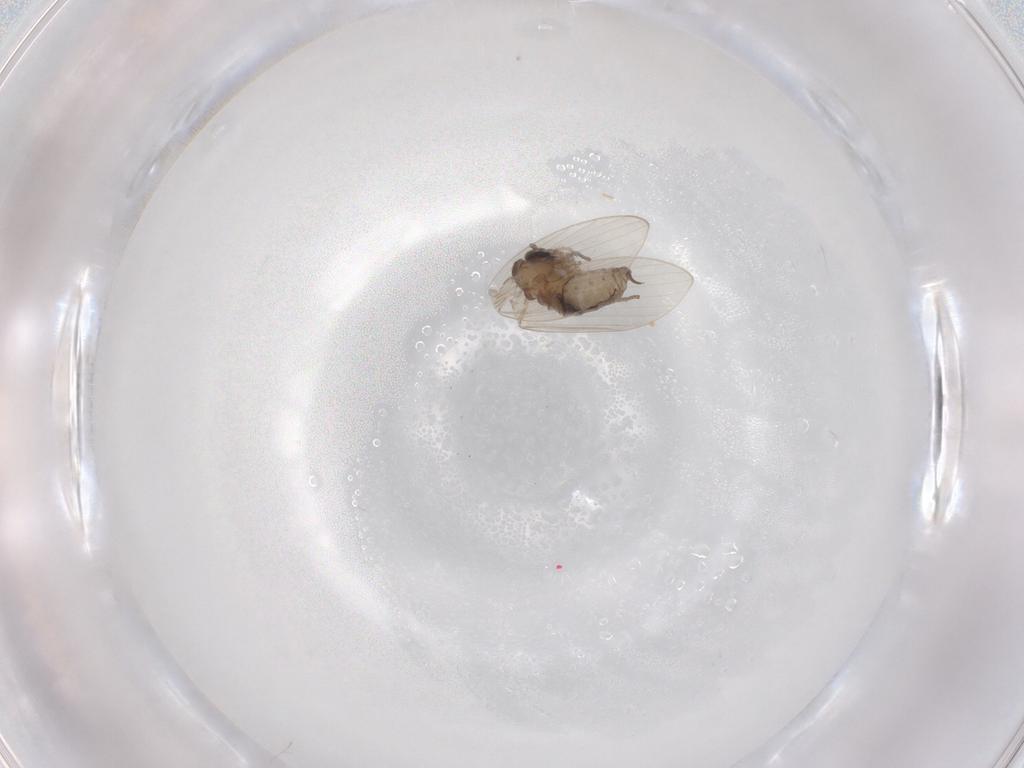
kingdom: Animalia
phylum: Arthropoda
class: Insecta
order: Diptera
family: Psychodidae
